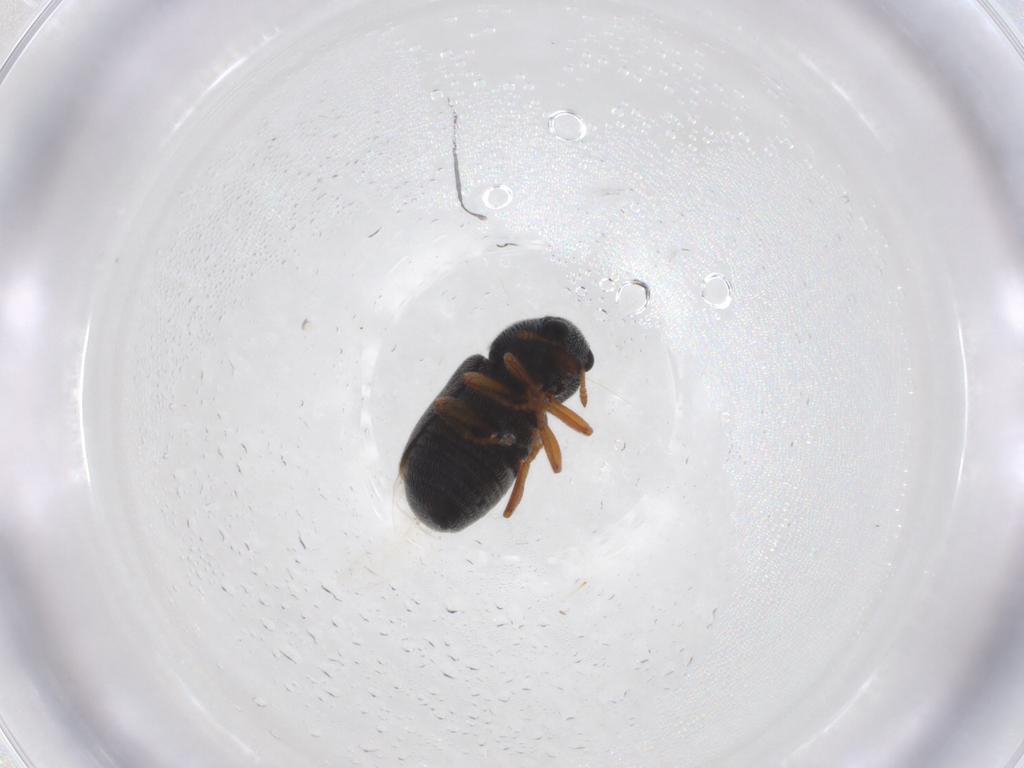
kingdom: Animalia
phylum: Arthropoda
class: Insecta
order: Coleoptera
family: Anthribidae
